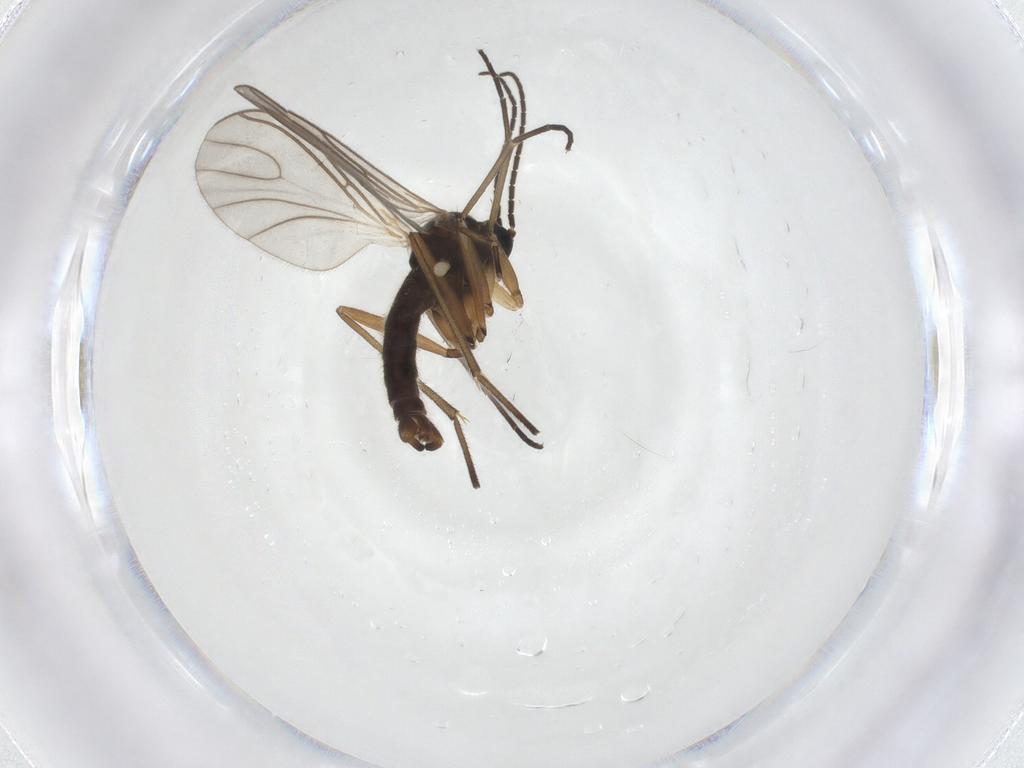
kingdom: Animalia
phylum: Arthropoda
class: Insecta
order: Diptera
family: Sciaridae
